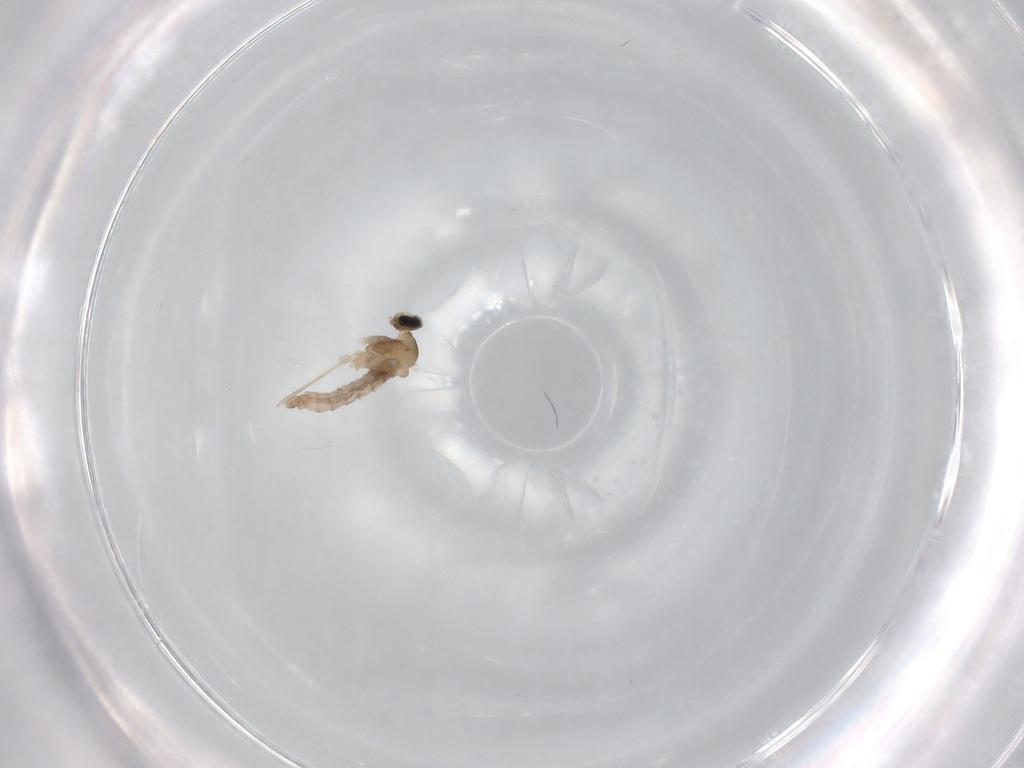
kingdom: Animalia
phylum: Arthropoda
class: Insecta
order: Diptera
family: Cecidomyiidae
